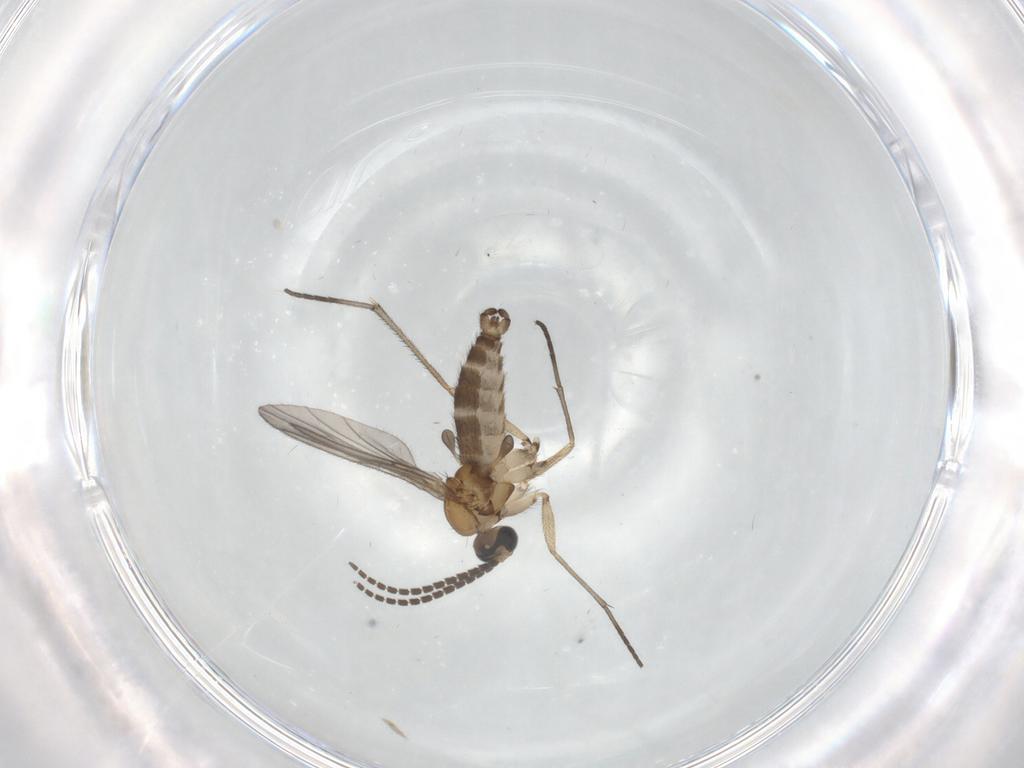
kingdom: Animalia
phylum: Arthropoda
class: Insecta
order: Diptera
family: Sciaridae
